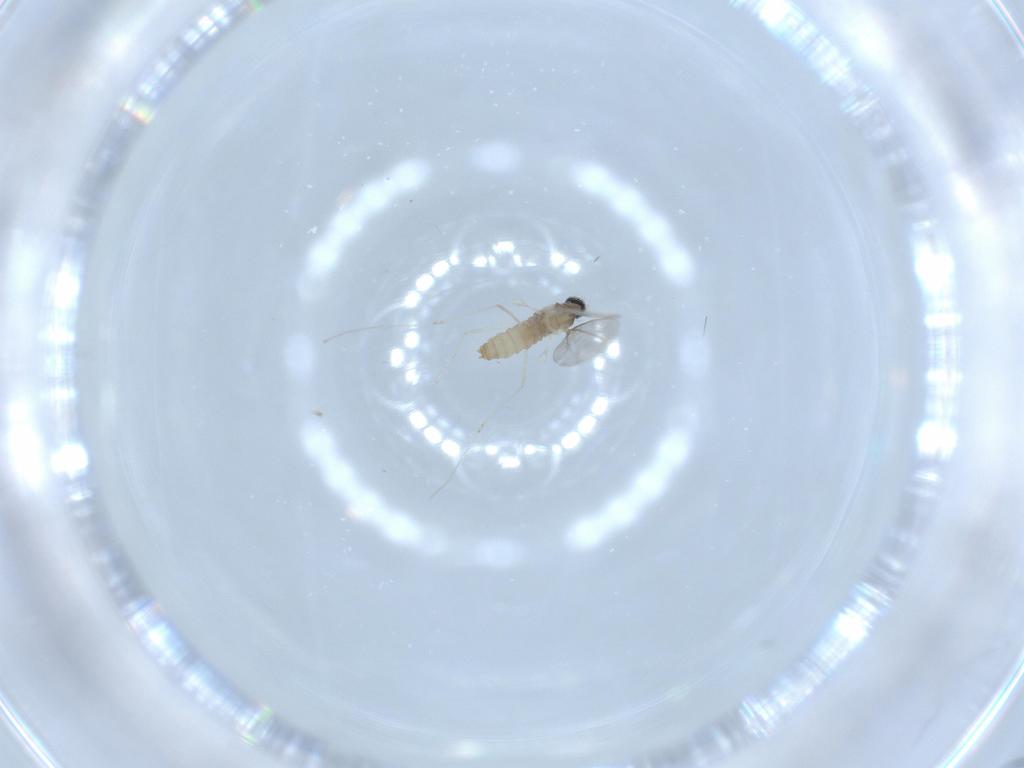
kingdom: Animalia
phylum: Arthropoda
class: Insecta
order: Diptera
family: Cecidomyiidae
